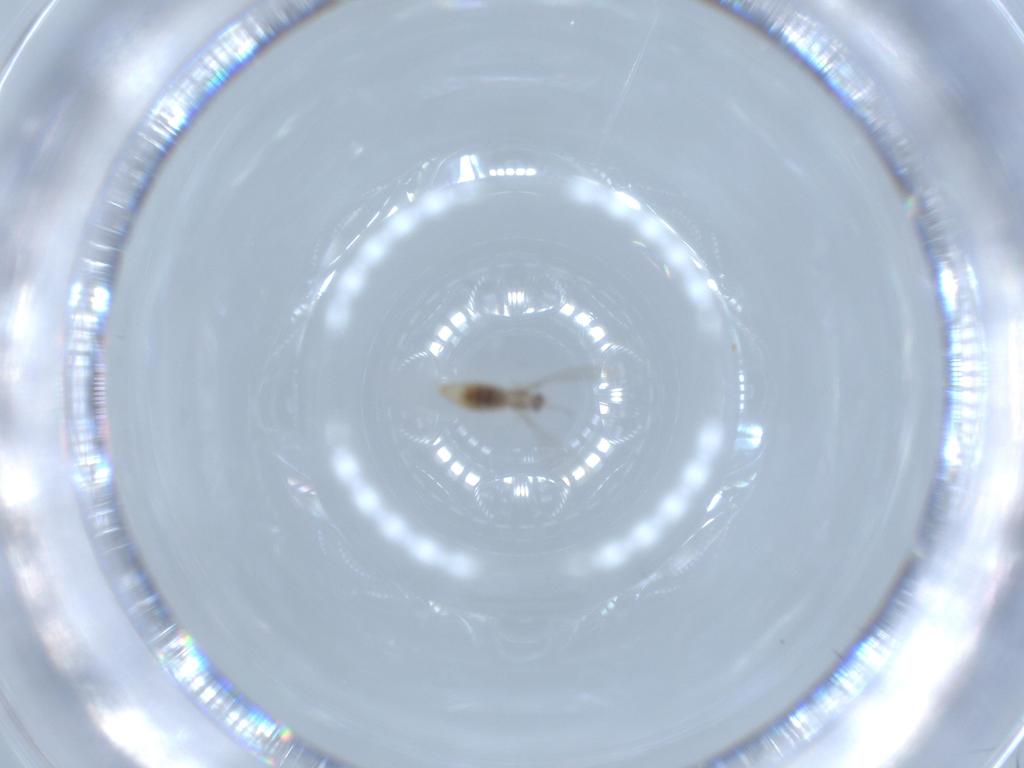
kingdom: Animalia
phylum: Arthropoda
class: Insecta
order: Diptera
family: Cecidomyiidae
